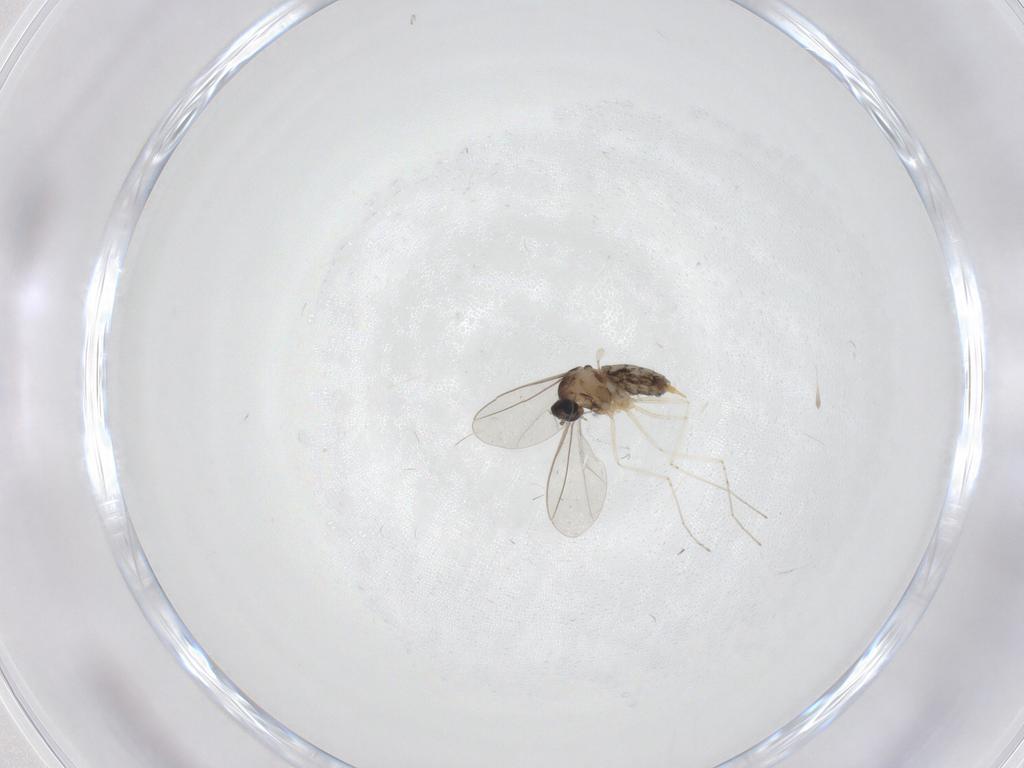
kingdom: Animalia
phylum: Arthropoda
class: Insecta
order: Diptera
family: Cecidomyiidae
